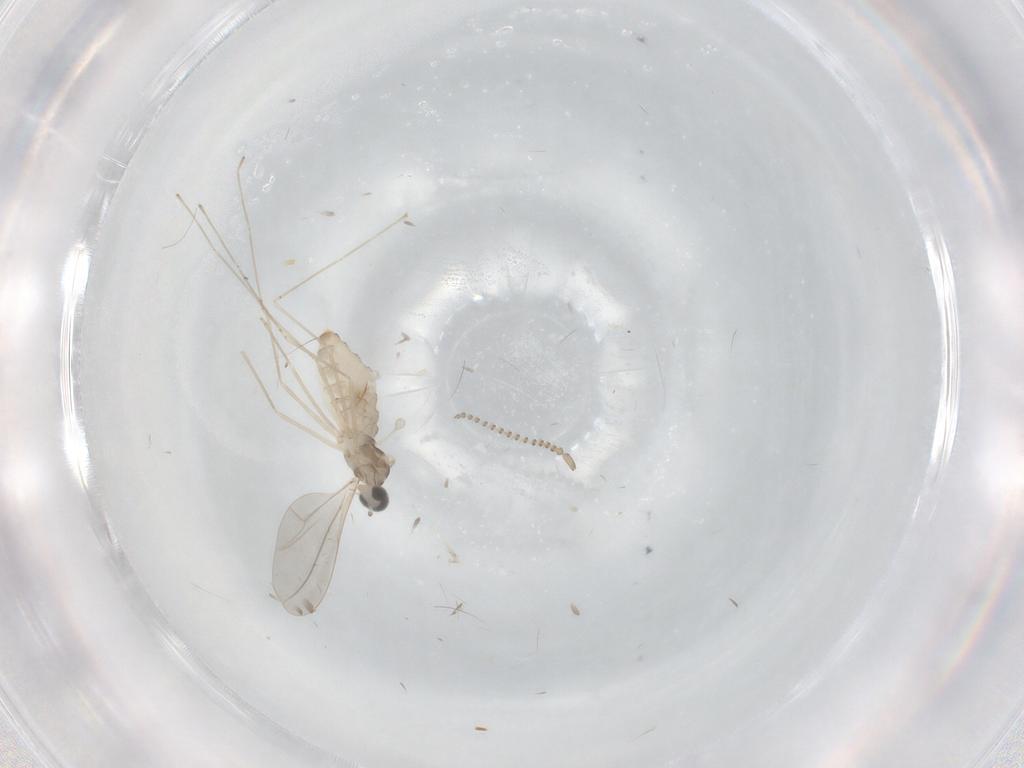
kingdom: Animalia
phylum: Arthropoda
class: Insecta
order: Diptera
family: Cecidomyiidae
